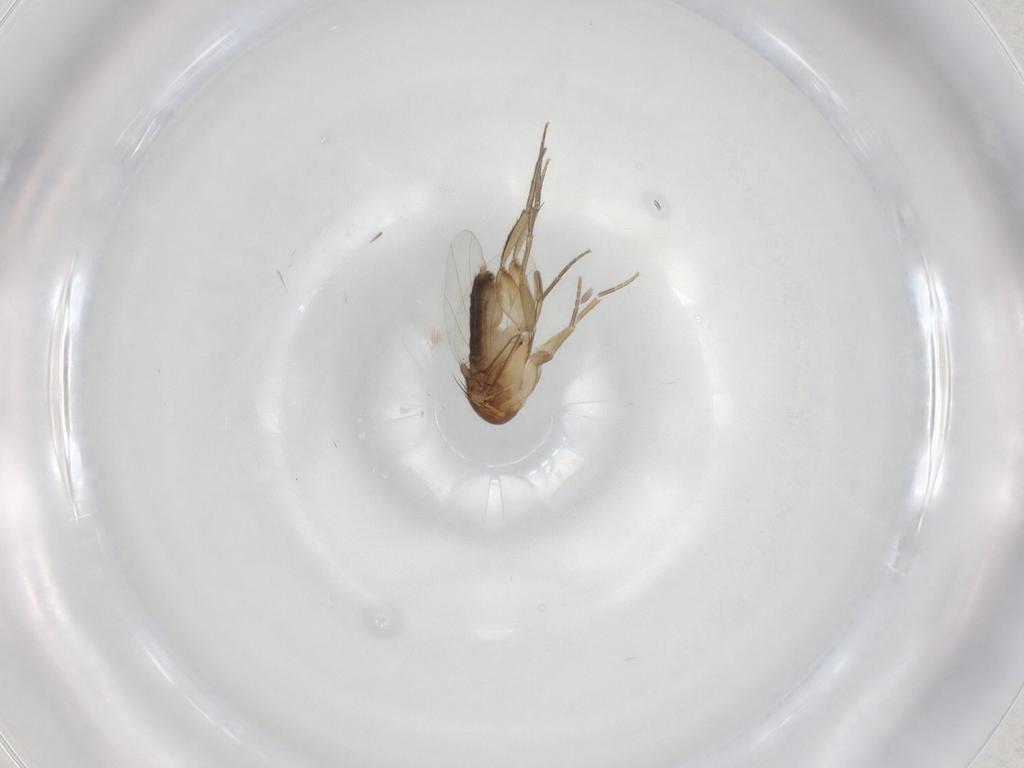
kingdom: Animalia
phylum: Arthropoda
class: Insecta
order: Diptera
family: Phoridae
